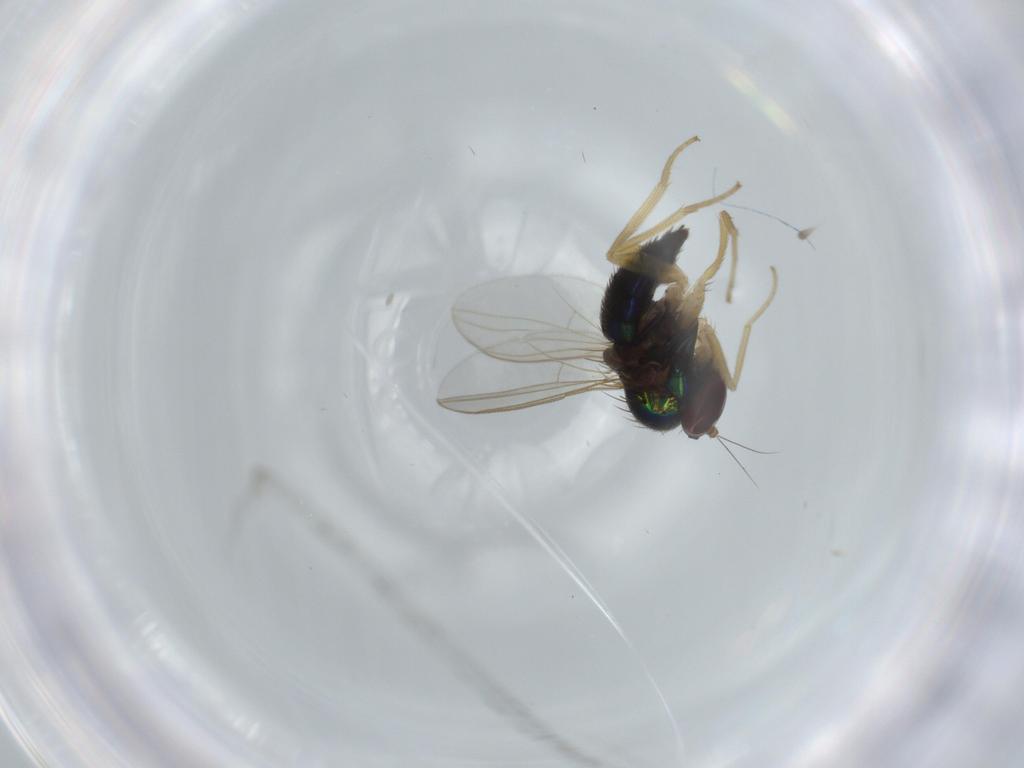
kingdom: Animalia
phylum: Arthropoda
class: Insecta
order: Diptera
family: Dolichopodidae
